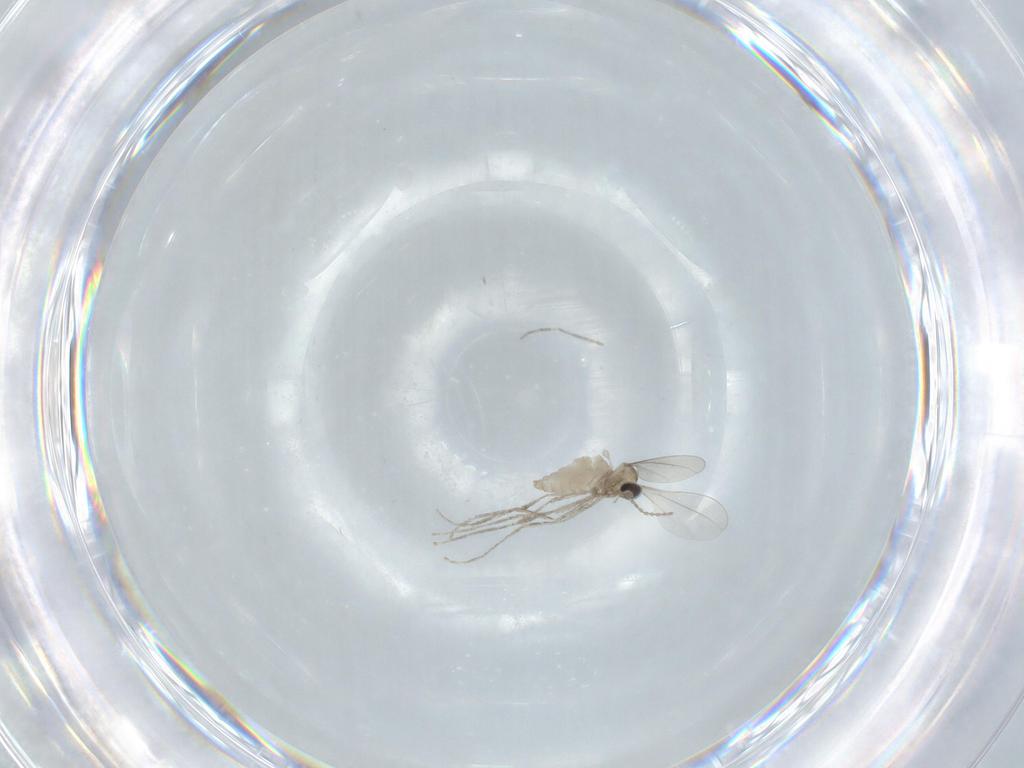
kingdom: Animalia
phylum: Arthropoda
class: Insecta
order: Diptera
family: Cecidomyiidae
